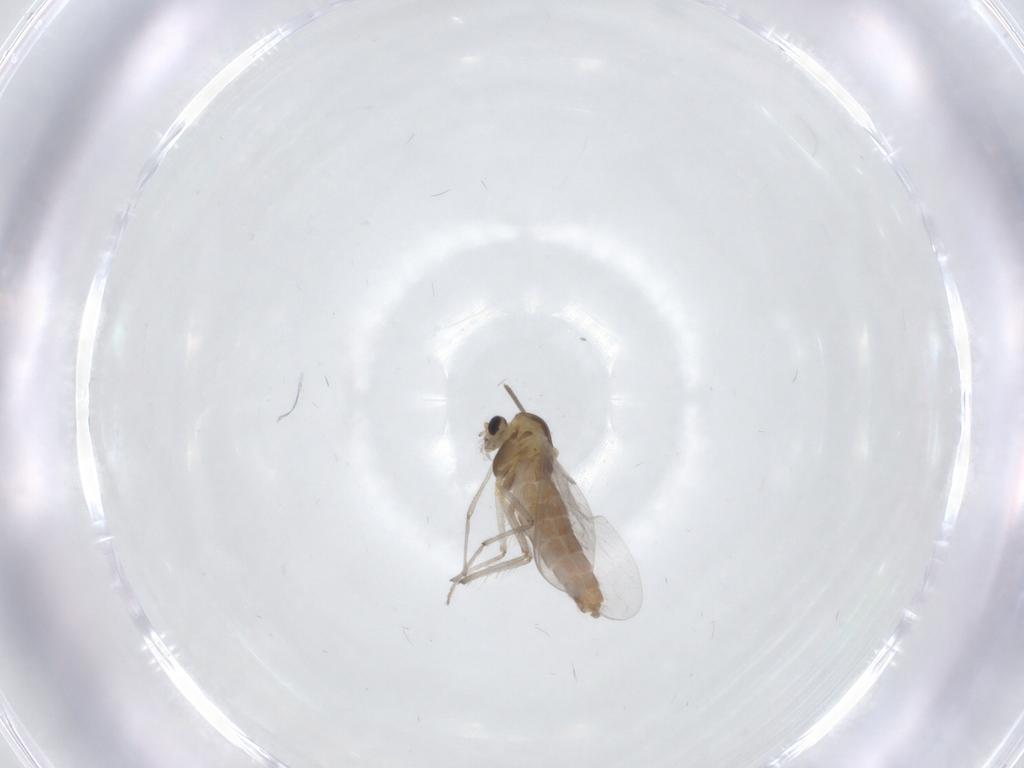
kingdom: Animalia
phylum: Arthropoda
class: Insecta
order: Diptera
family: Chironomidae
